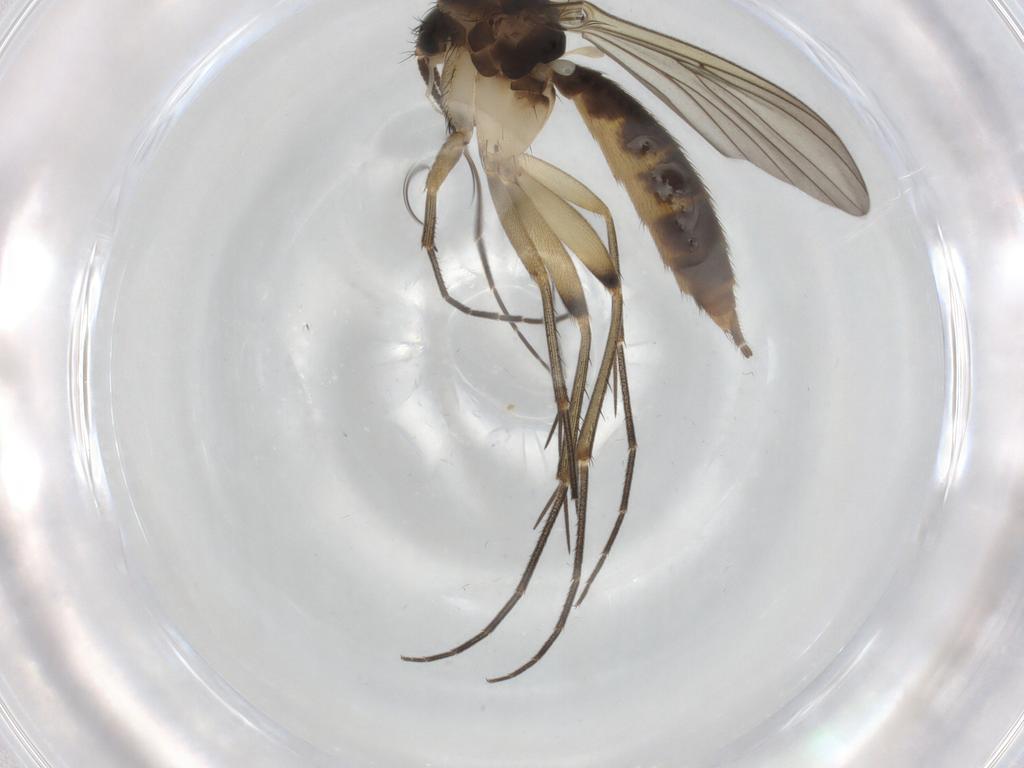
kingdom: Animalia
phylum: Arthropoda
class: Insecta
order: Diptera
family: Mycetophilidae
